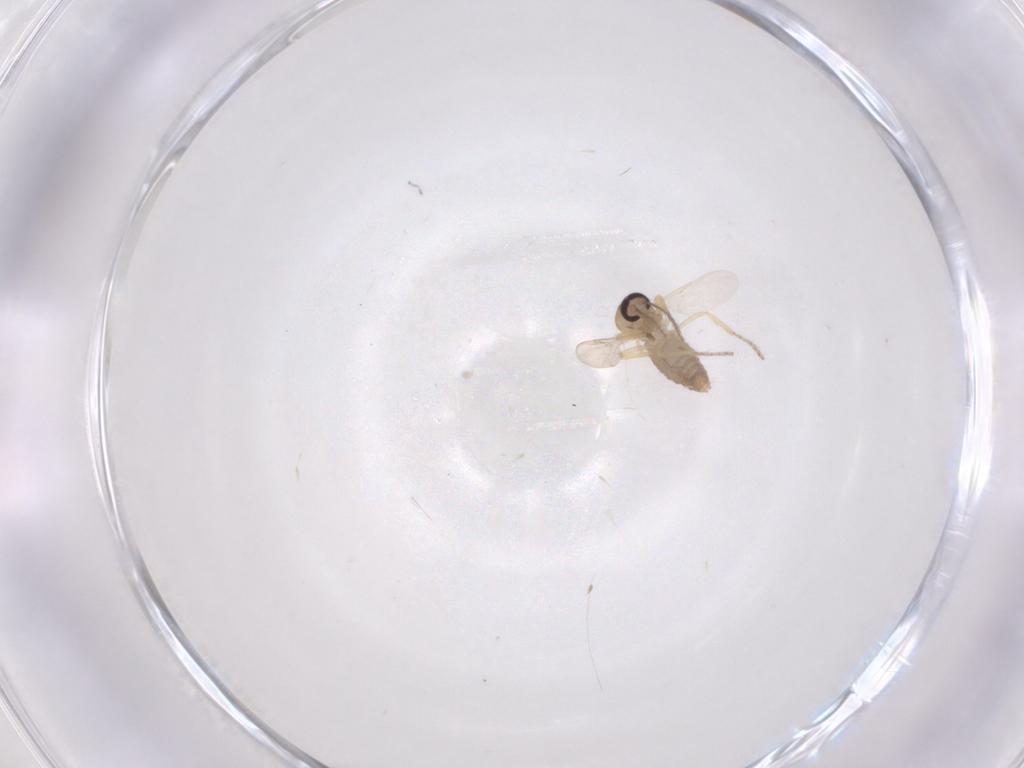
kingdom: Animalia
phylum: Arthropoda
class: Insecta
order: Diptera
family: Ceratopogonidae
